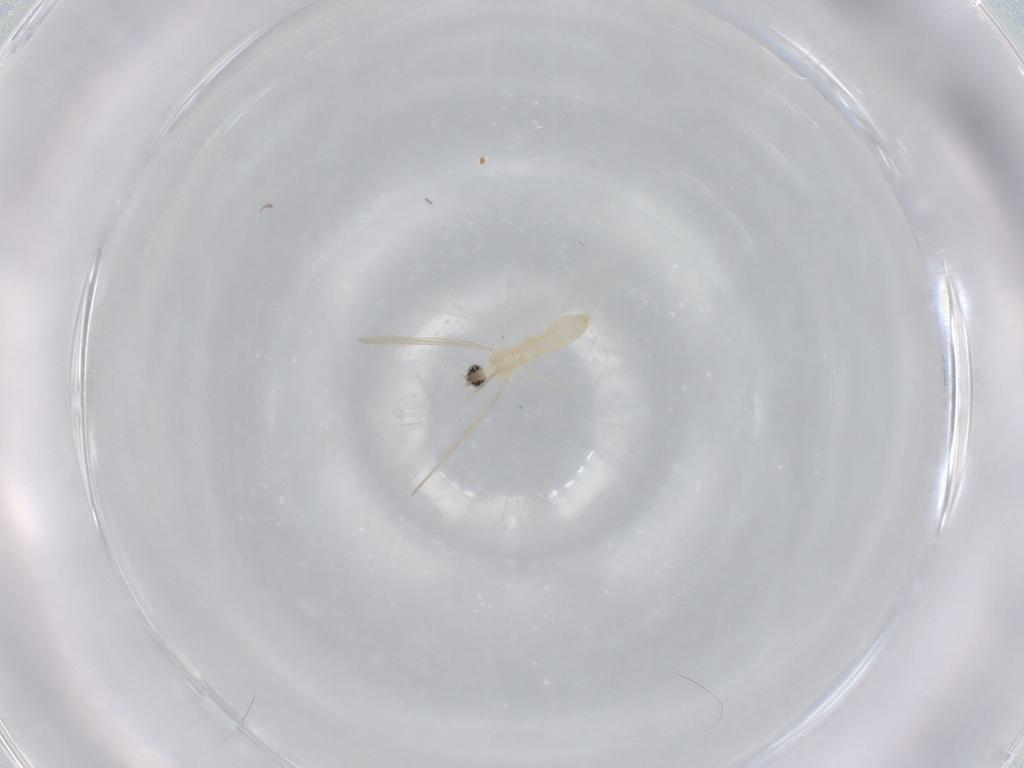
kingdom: Animalia
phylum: Arthropoda
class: Insecta
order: Diptera
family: Cecidomyiidae
